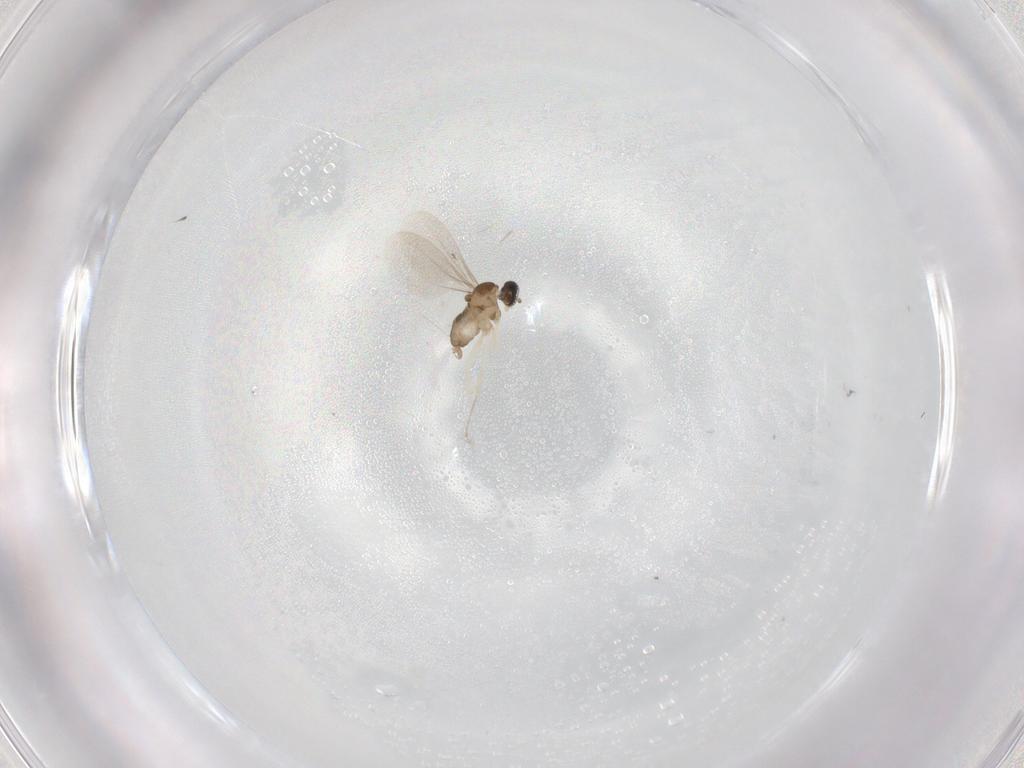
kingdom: Animalia
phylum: Arthropoda
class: Insecta
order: Diptera
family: Cecidomyiidae
